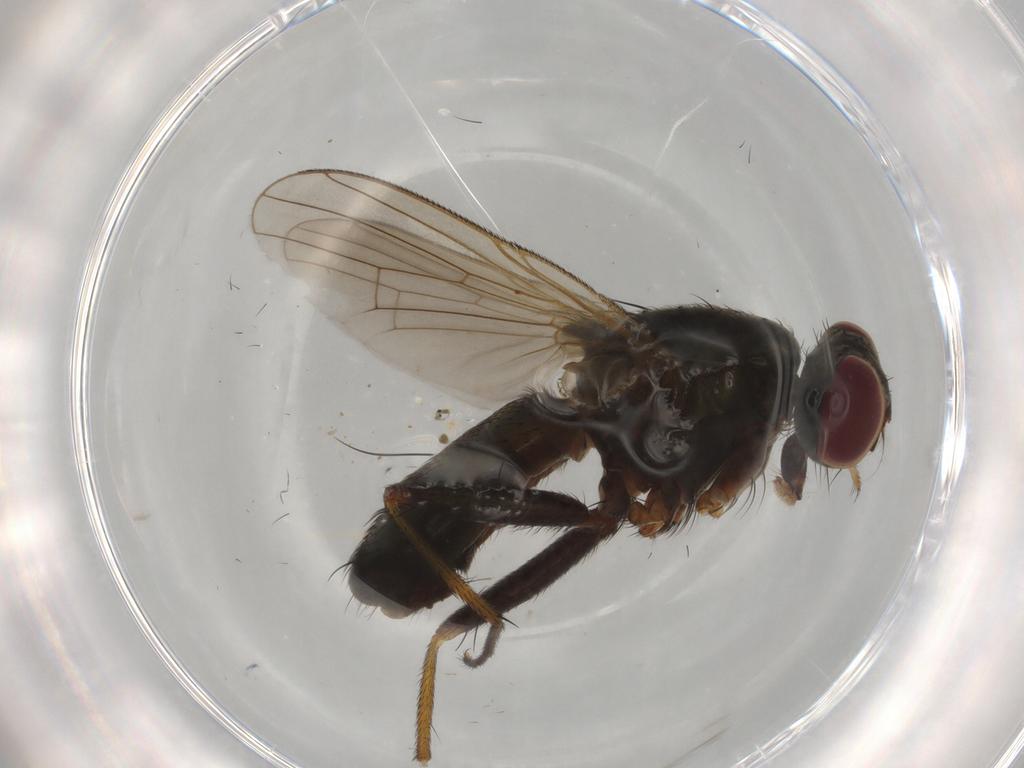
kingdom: Animalia
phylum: Arthropoda
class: Insecta
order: Diptera
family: Muscidae
